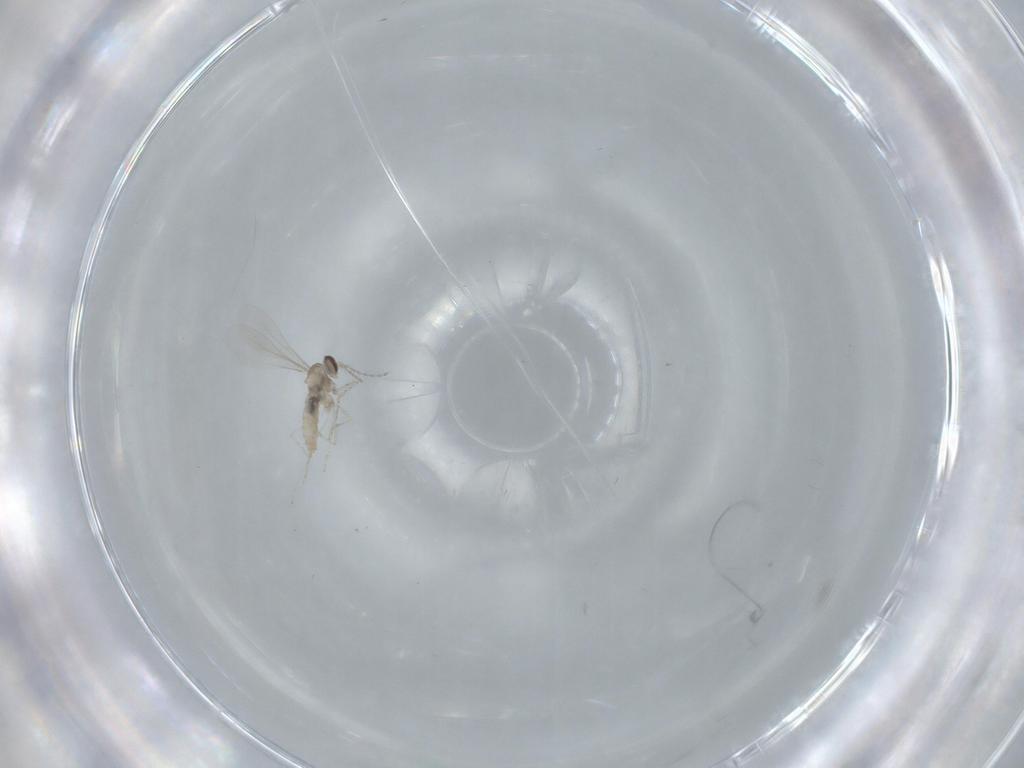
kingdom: Animalia
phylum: Arthropoda
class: Insecta
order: Diptera
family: Cecidomyiidae
